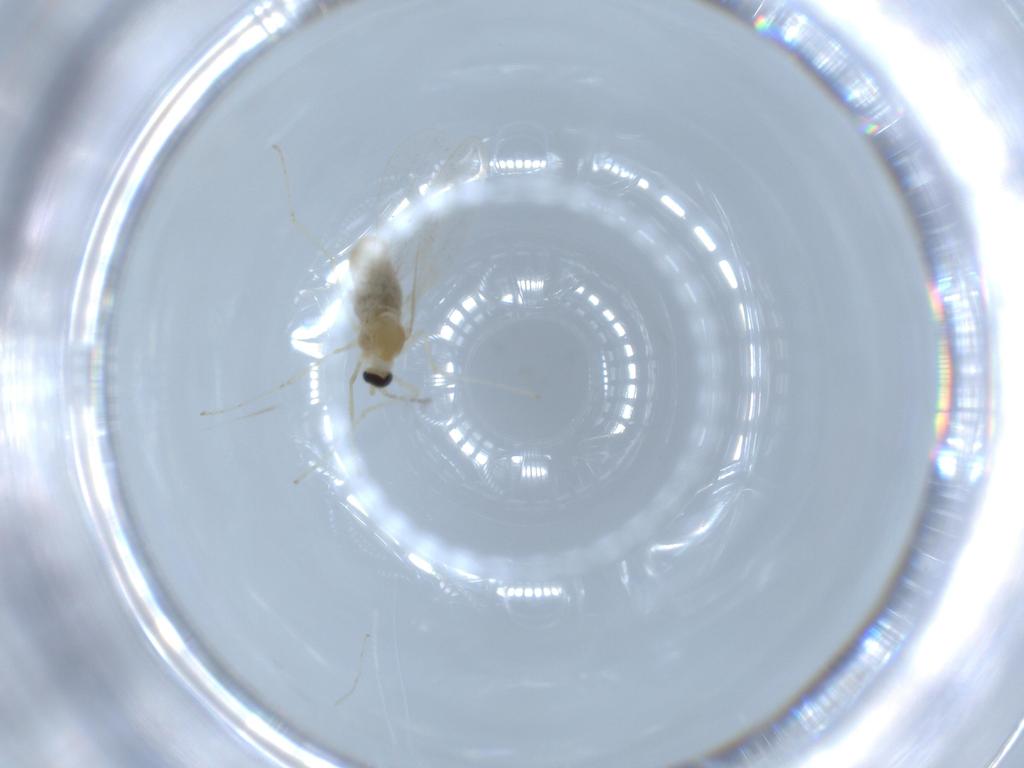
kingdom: Animalia
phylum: Arthropoda
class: Insecta
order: Diptera
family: Cecidomyiidae
